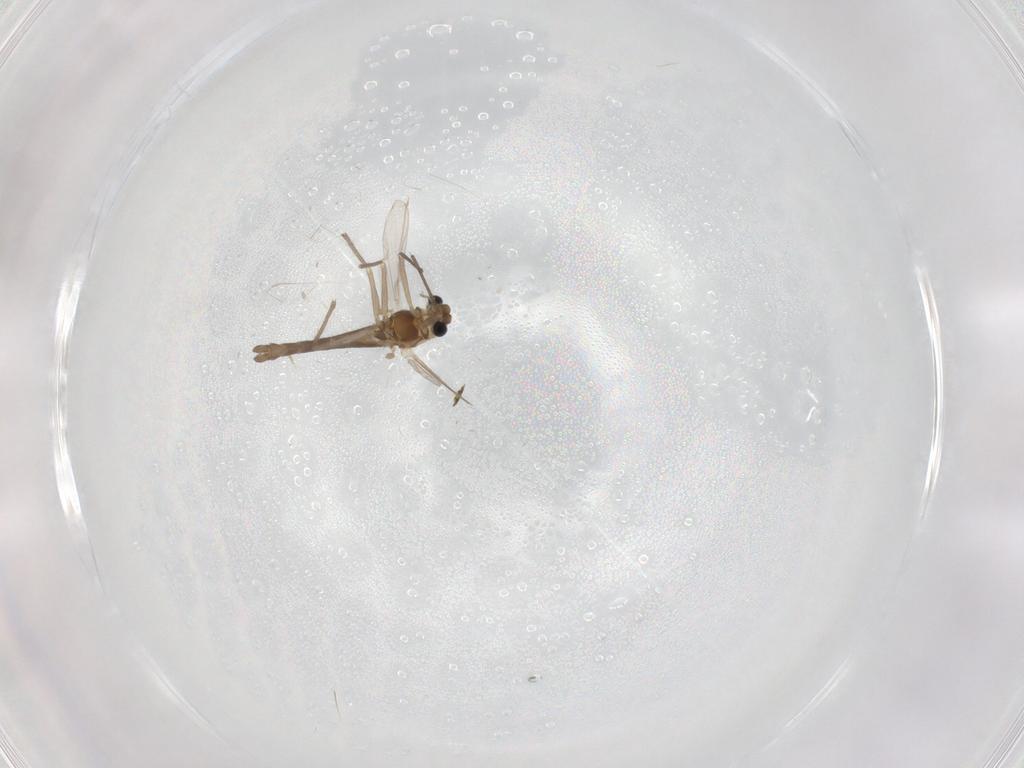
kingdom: Animalia
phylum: Arthropoda
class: Insecta
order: Diptera
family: Chironomidae
